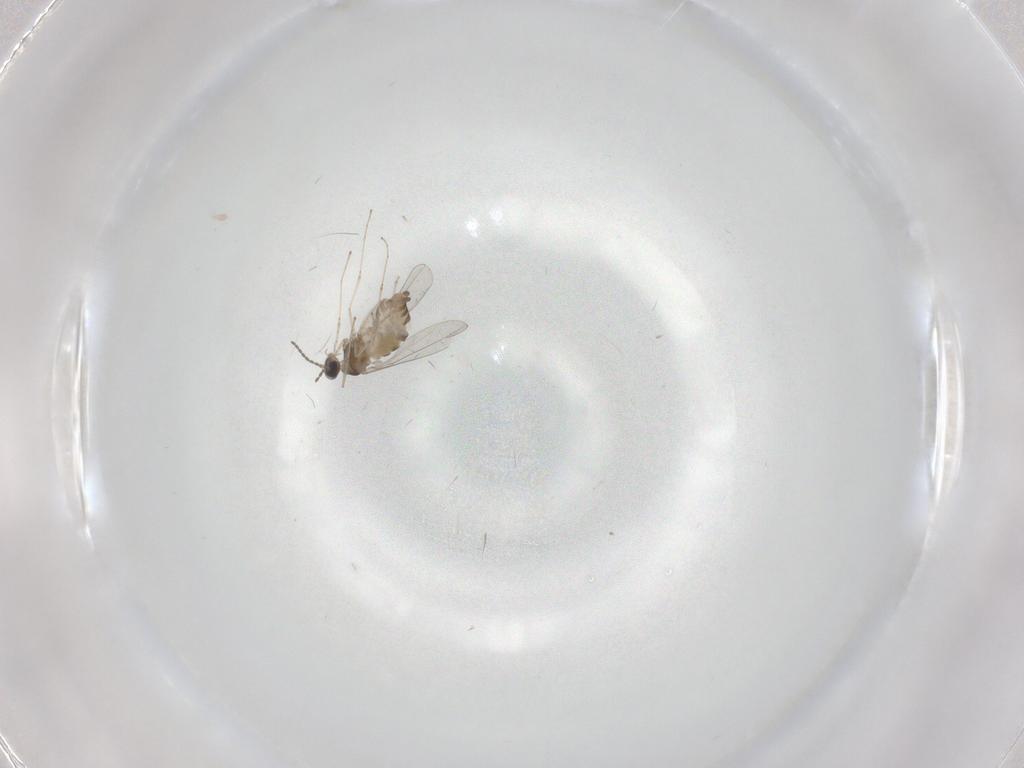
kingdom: Animalia
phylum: Arthropoda
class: Insecta
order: Diptera
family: Cecidomyiidae
